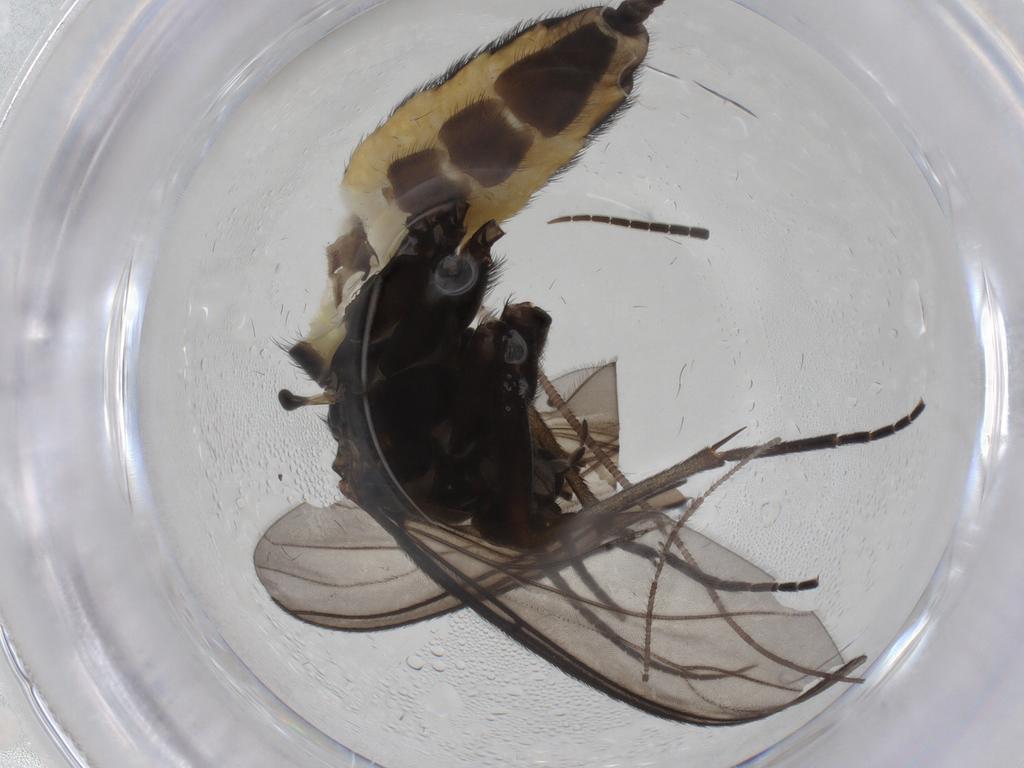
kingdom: Animalia
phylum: Arthropoda
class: Insecta
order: Diptera
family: Sciaridae
